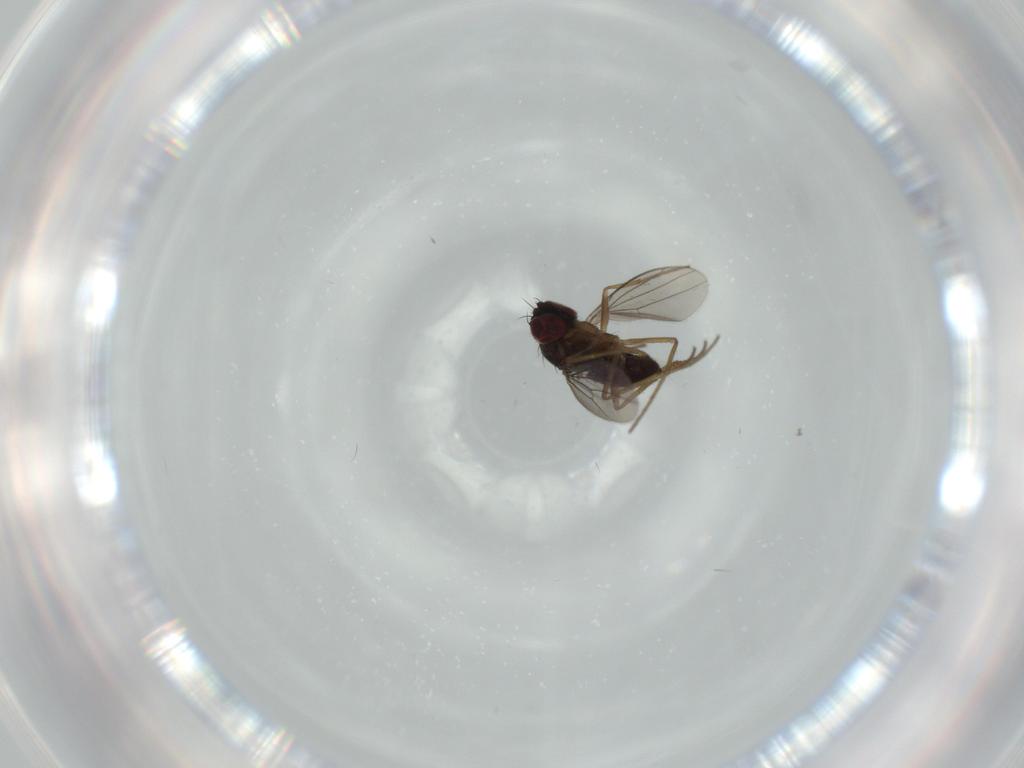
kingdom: Animalia
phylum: Arthropoda
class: Insecta
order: Diptera
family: Dolichopodidae
